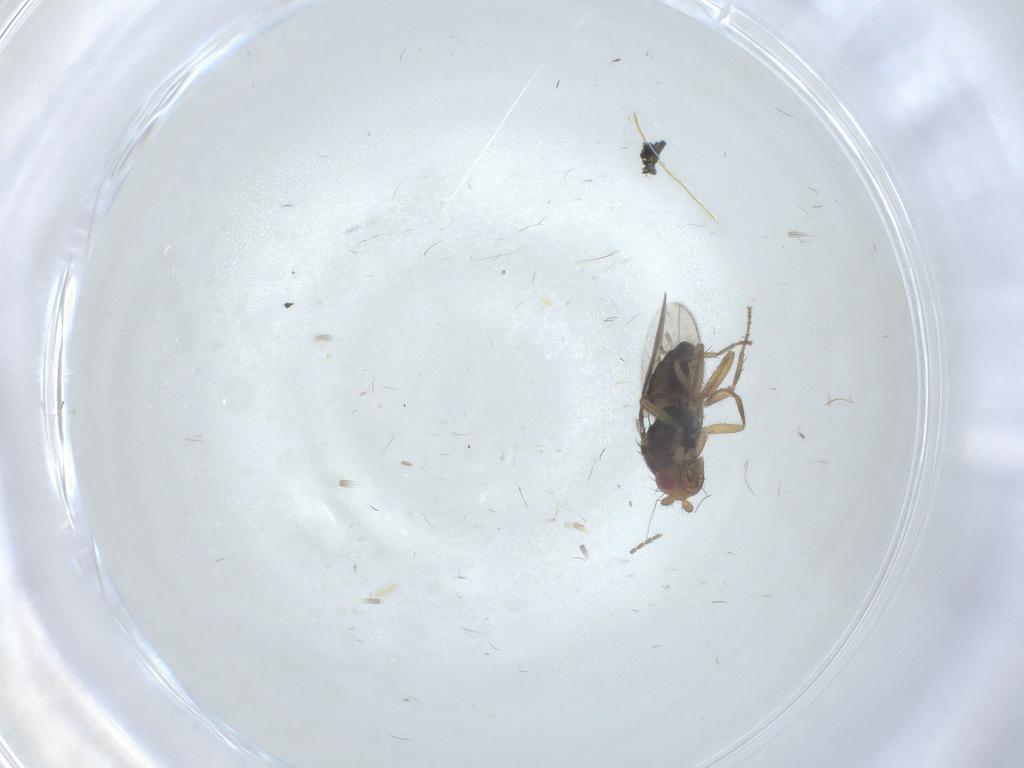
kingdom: Animalia
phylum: Arthropoda
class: Insecta
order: Diptera
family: Sphaeroceridae
